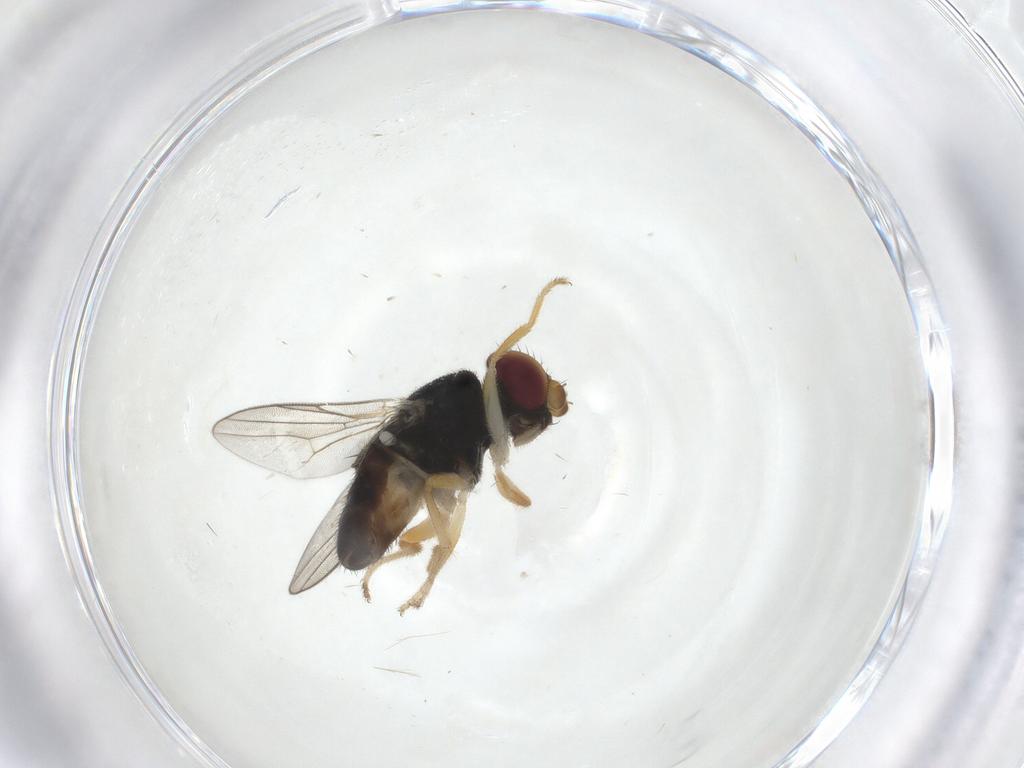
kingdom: Animalia
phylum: Arthropoda
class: Insecta
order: Diptera
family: Chloropidae
